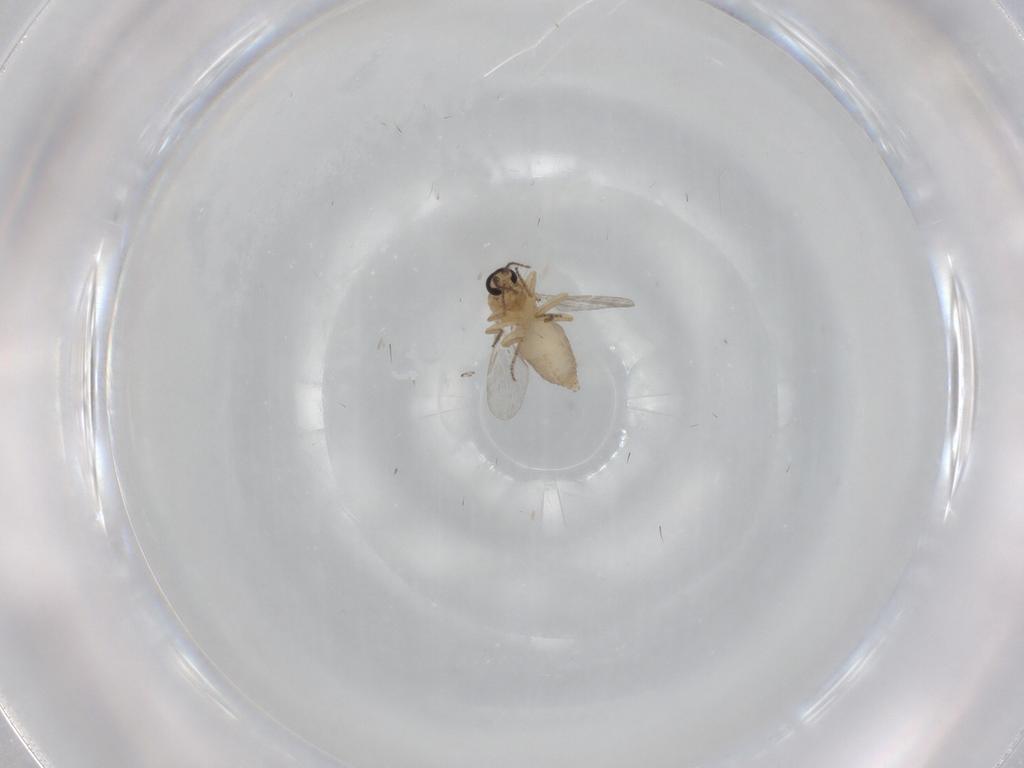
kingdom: Animalia
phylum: Arthropoda
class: Insecta
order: Diptera
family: Ceratopogonidae
